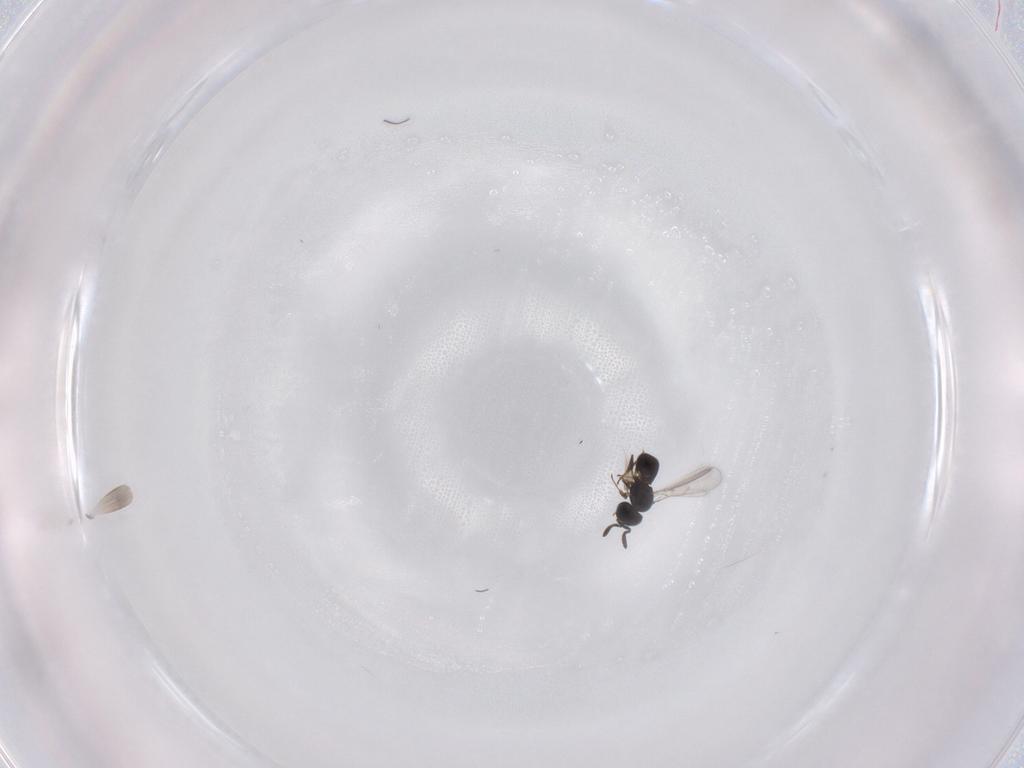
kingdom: Animalia
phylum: Arthropoda
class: Insecta
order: Hymenoptera
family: Scelionidae
